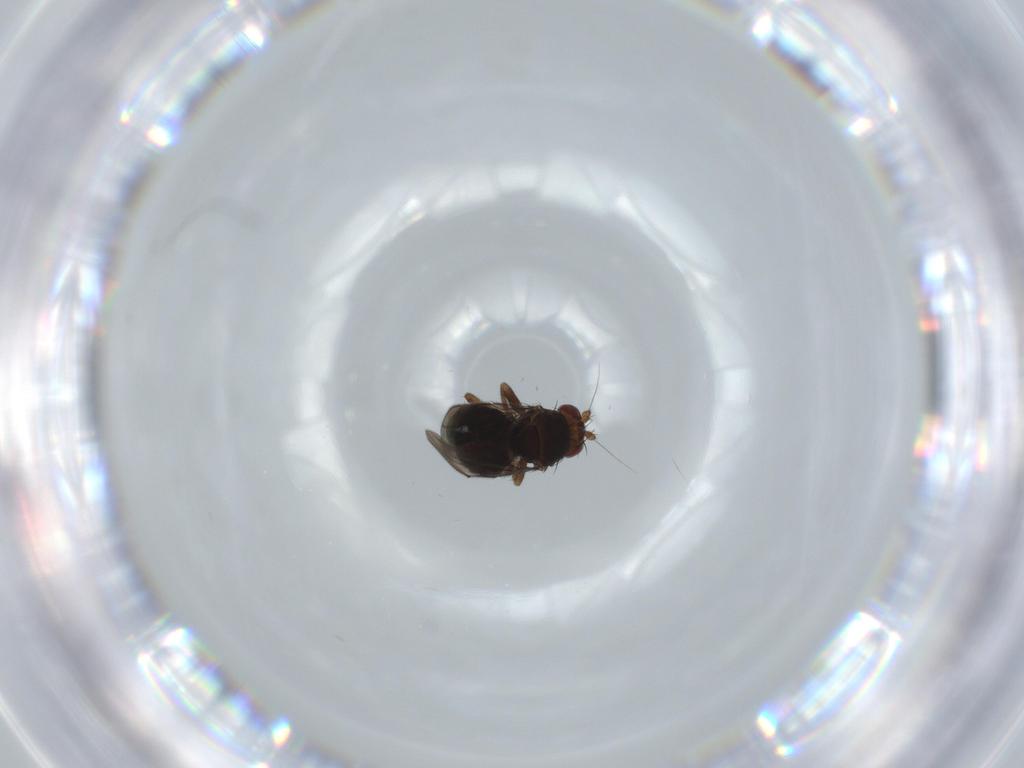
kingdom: Animalia
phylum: Arthropoda
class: Insecta
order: Diptera
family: Sphaeroceridae
